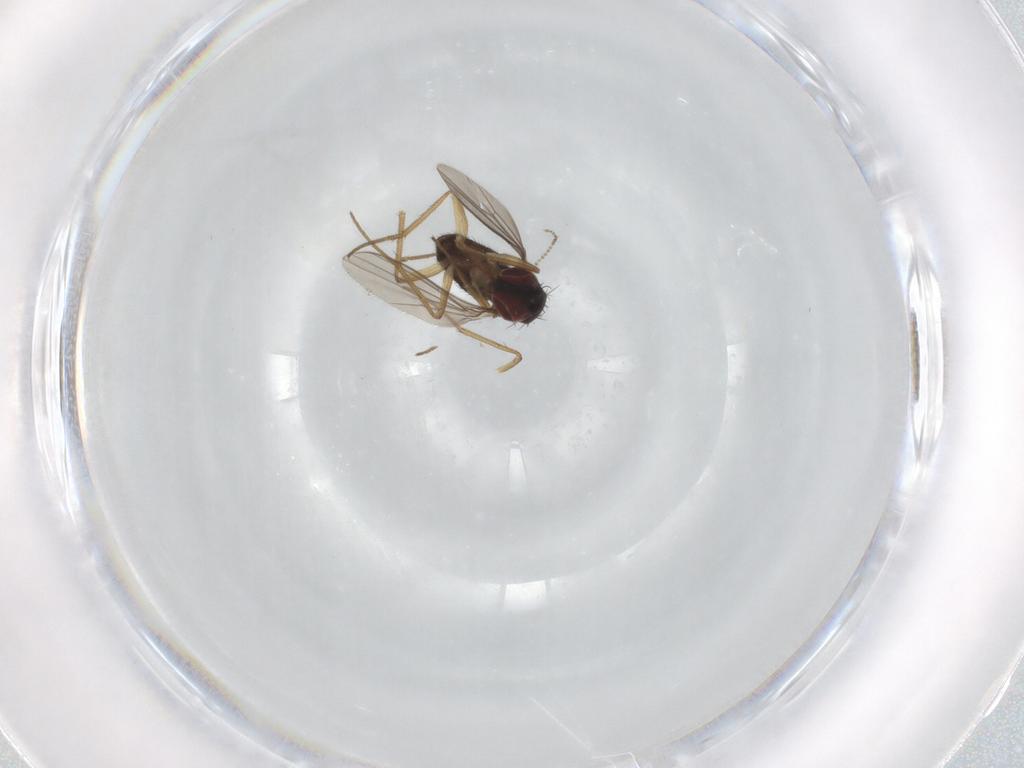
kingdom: Animalia
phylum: Arthropoda
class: Insecta
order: Diptera
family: Dolichopodidae
